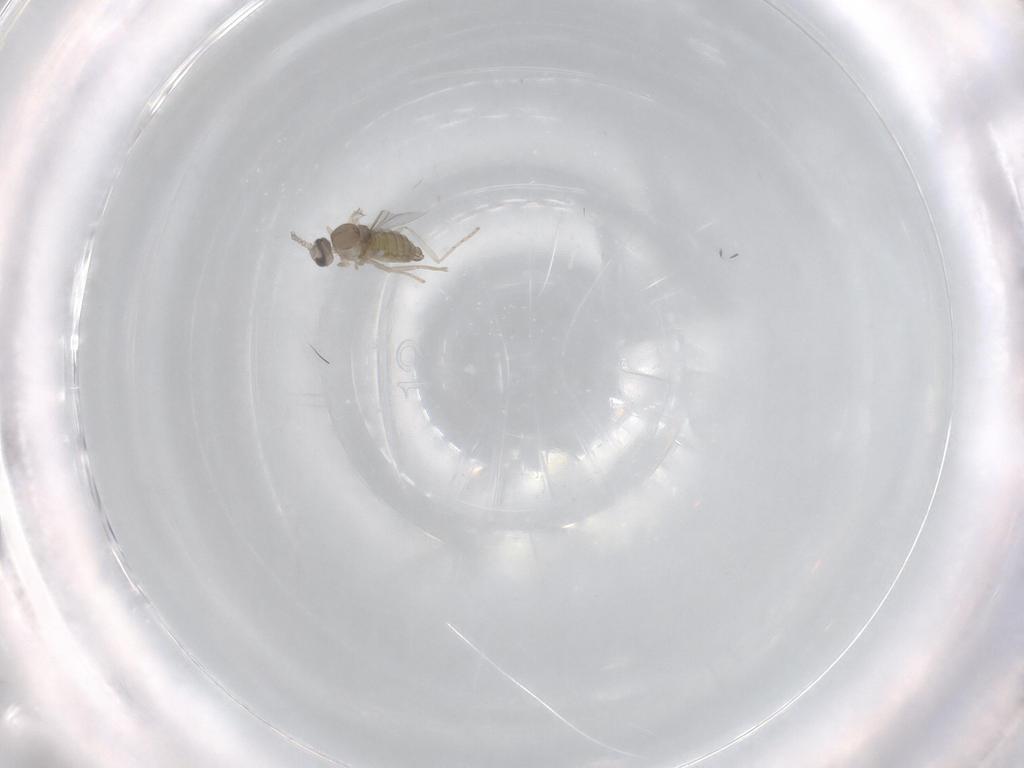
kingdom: Animalia
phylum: Arthropoda
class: Insecta
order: Diptera
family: Cecidomyiidae
